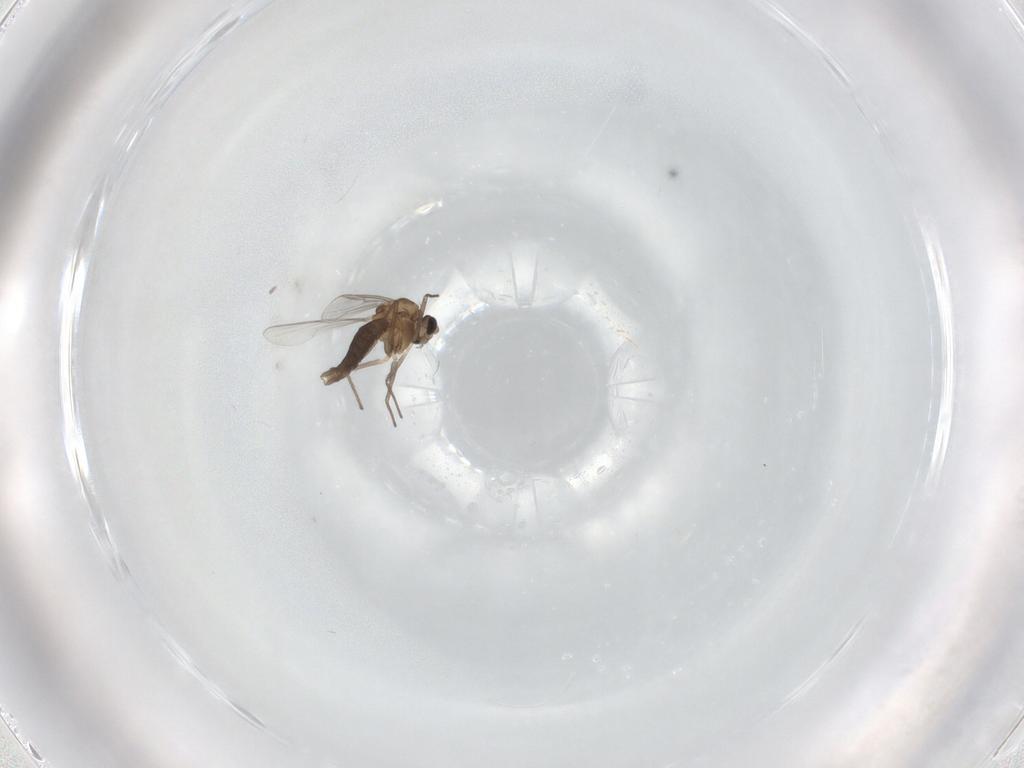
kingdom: Animalia
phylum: Arthropoda
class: Insecta
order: Diptera
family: Chironomidae
